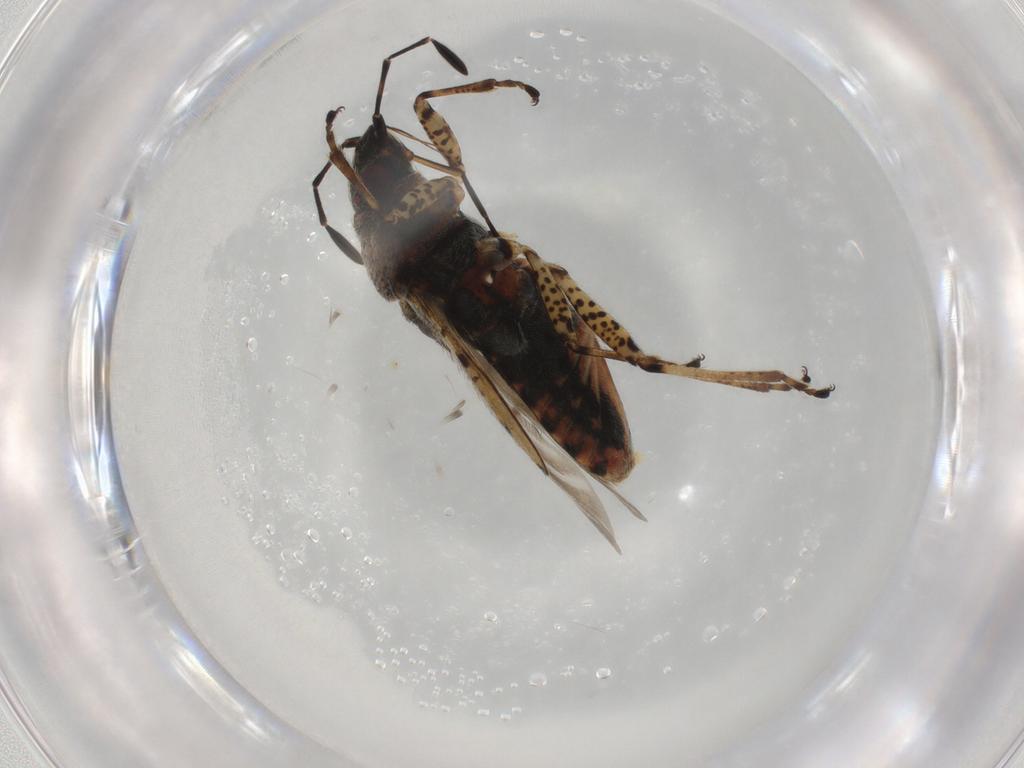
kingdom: Animalia
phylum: Arthropoda
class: Insecta
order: Hemiptera
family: Lygaeidae
